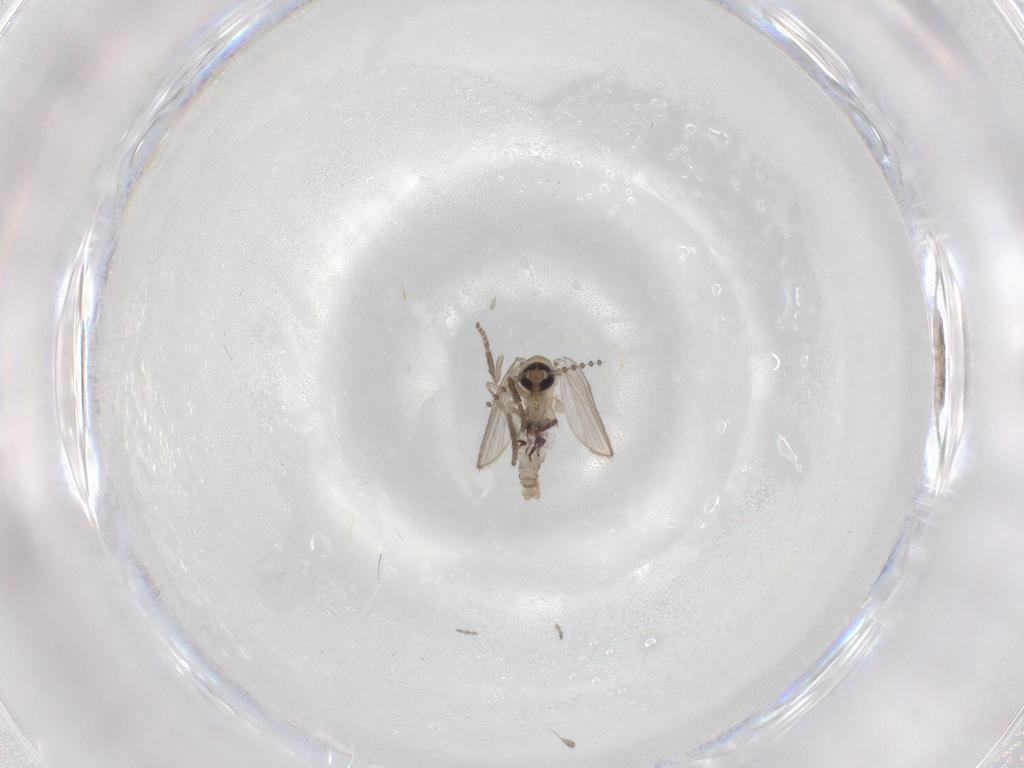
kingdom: Animalia
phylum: Arthropoda
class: Insecta
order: Diptera
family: Psychodidae
